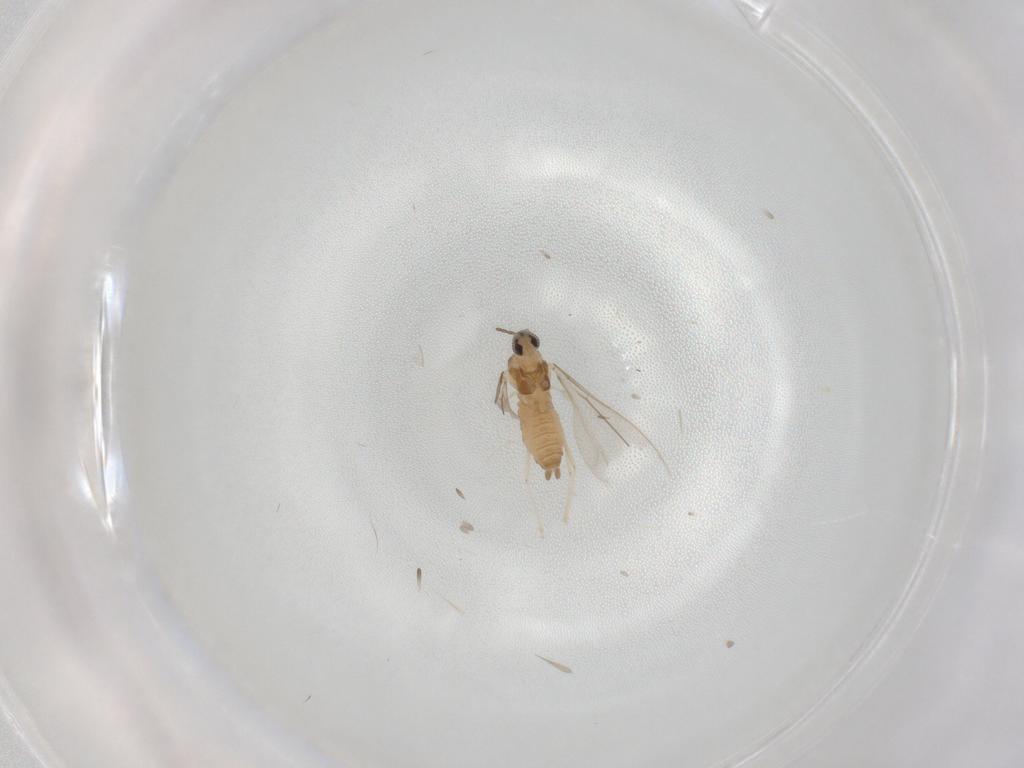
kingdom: Animalia
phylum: Arthropoda
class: Insecta
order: Diptera
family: Cecidomyiidae
